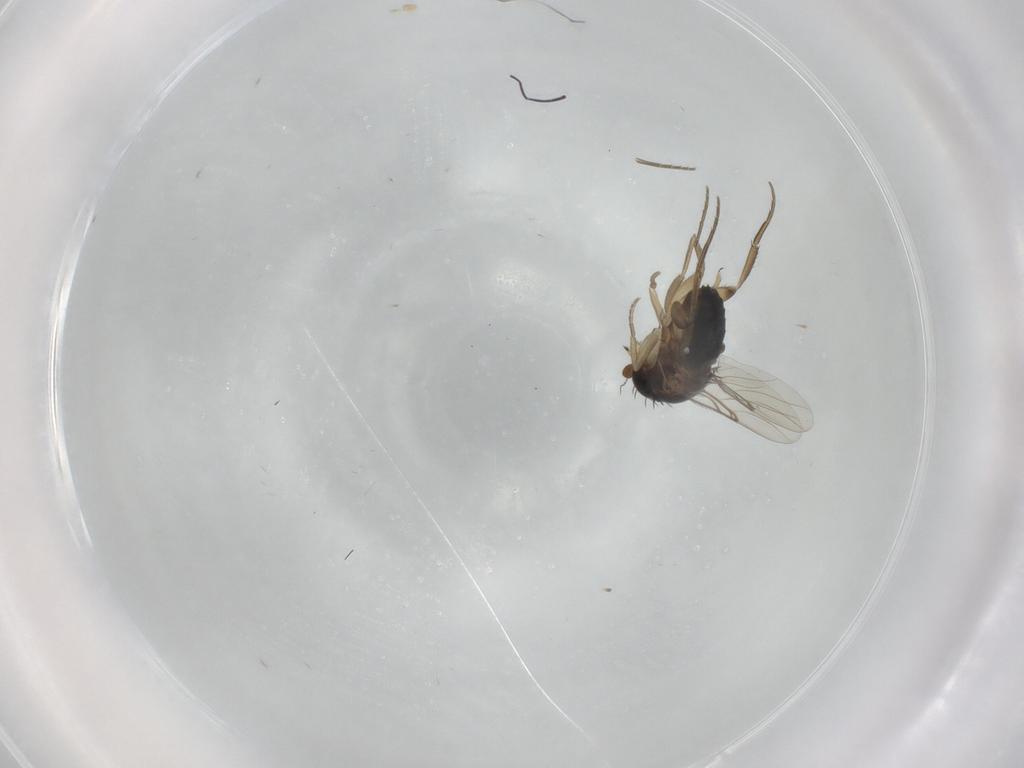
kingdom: Animalia
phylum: Arthropoda
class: Insecta
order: Diptera
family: Phoridae
